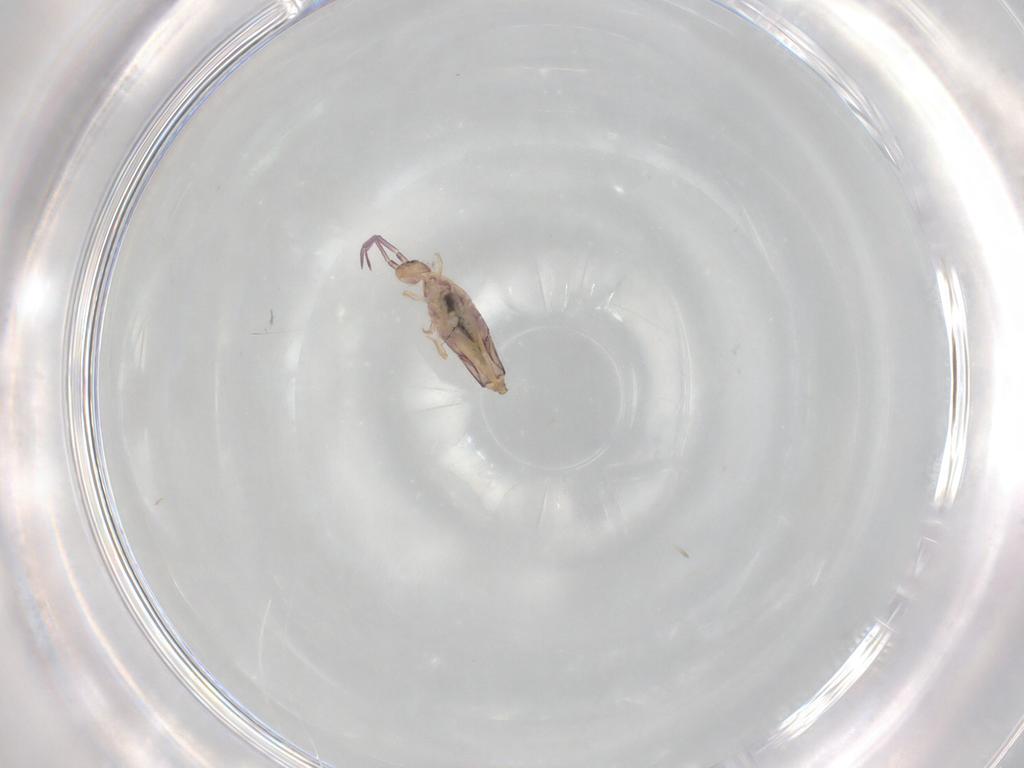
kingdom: Animalia
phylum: Arthropoda
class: Collembola
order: Entomobryomorpha
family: Entomobryidae
